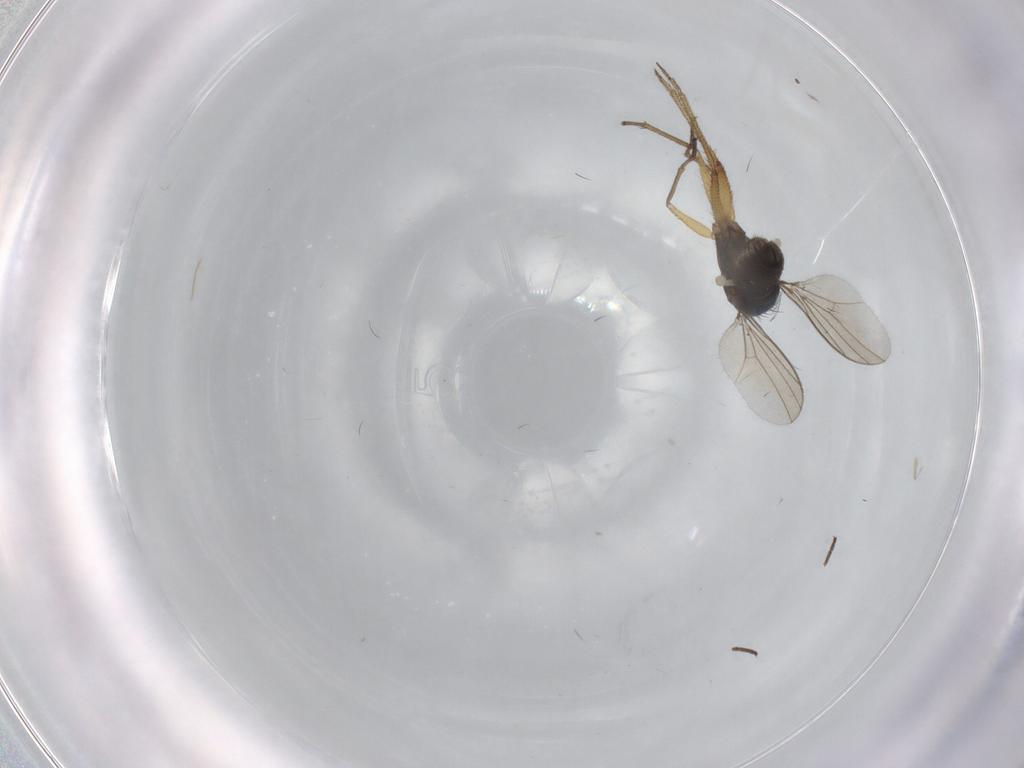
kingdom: Animalia
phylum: Arthropoda
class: Insecta
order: Diptera
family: Dolichopodidae
